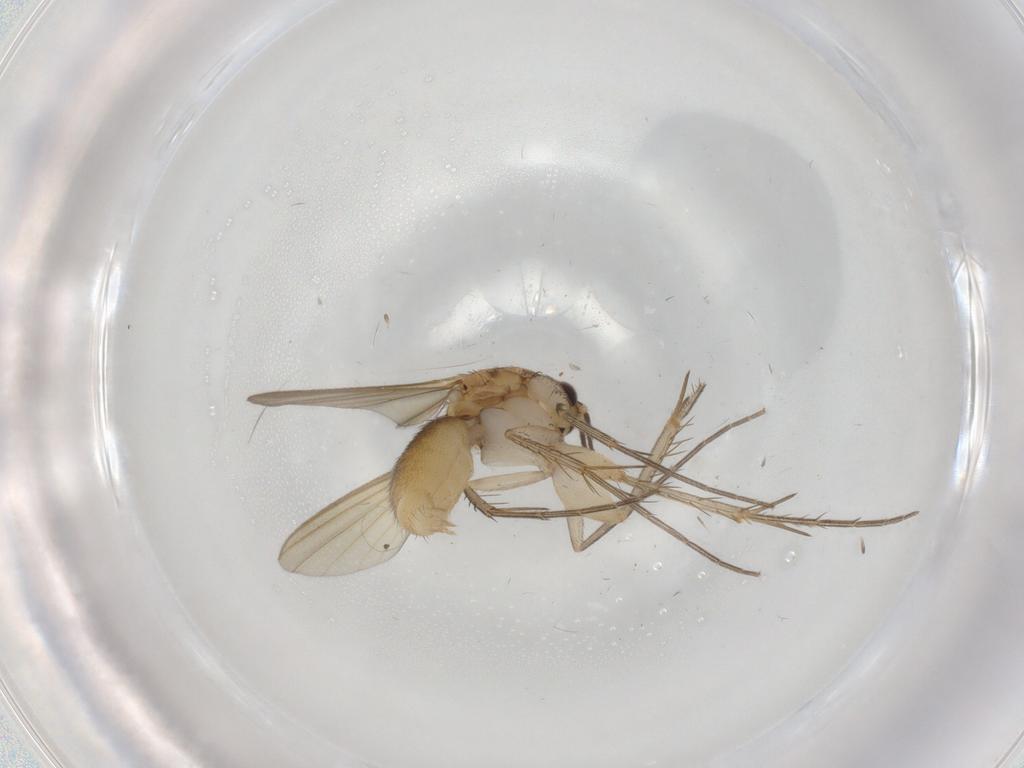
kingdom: Animalia
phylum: Arthropoda
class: Insecta
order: Diptera
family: Mycetophilidae
